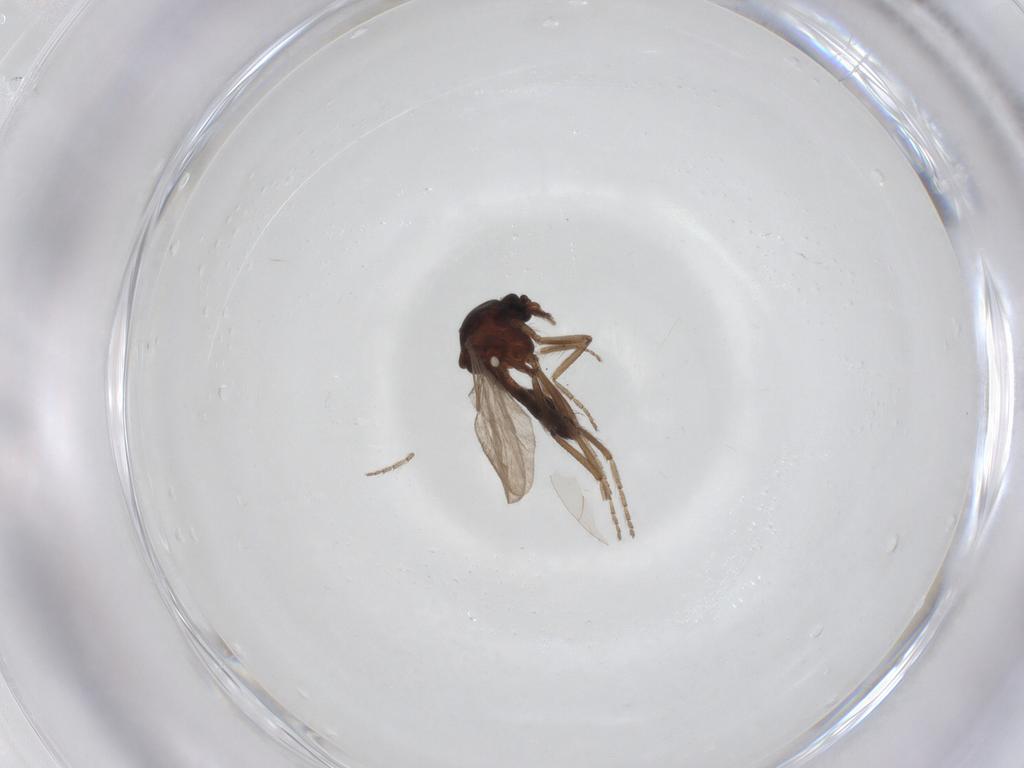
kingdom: Animalia
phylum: Arthropoda
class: Insecta
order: Diptera
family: Ceratopogonidae
